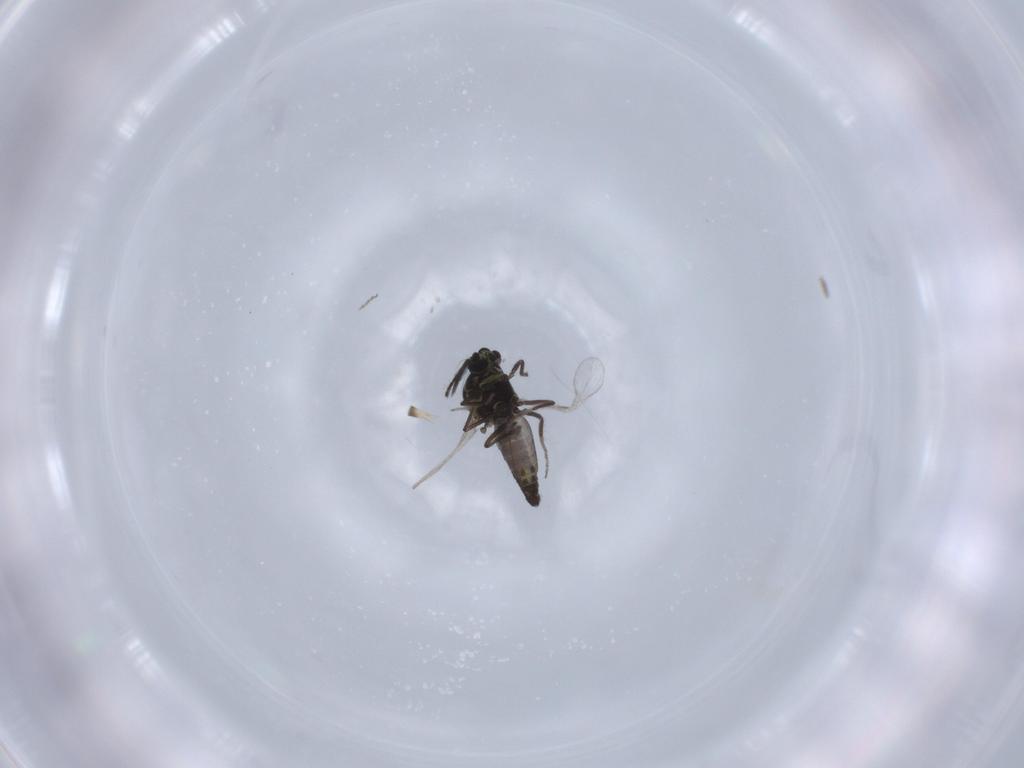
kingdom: Animalia
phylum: Arthropoda
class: Insecta
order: Diptera
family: Ceratopogonidae
